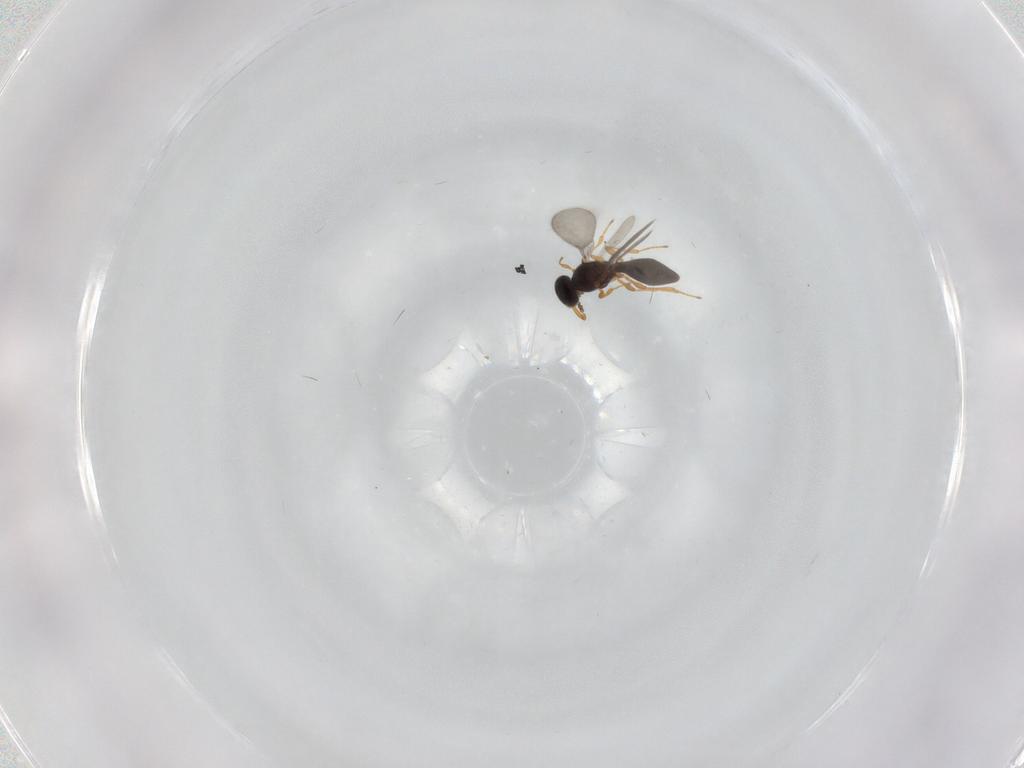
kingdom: Animalia
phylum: Arthropoda
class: Insecta
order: Hymenoptera
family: Platygastridae
